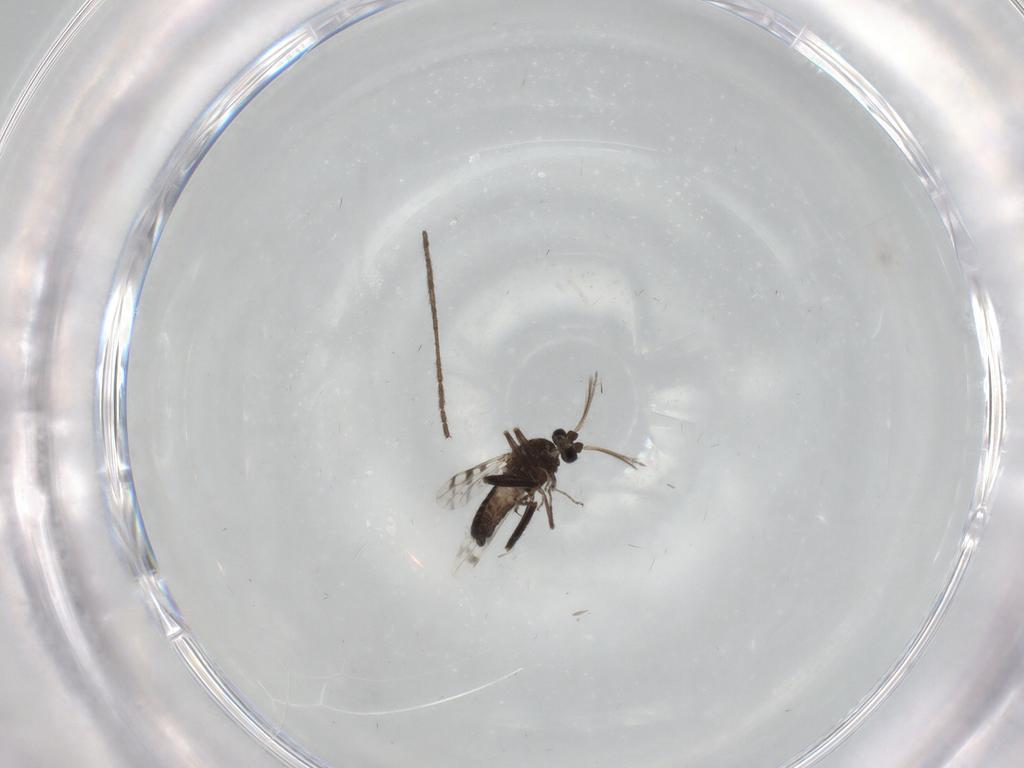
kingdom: Animalia
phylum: Arthropoda
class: Insecta
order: Diptera
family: Ceratopogonidae
